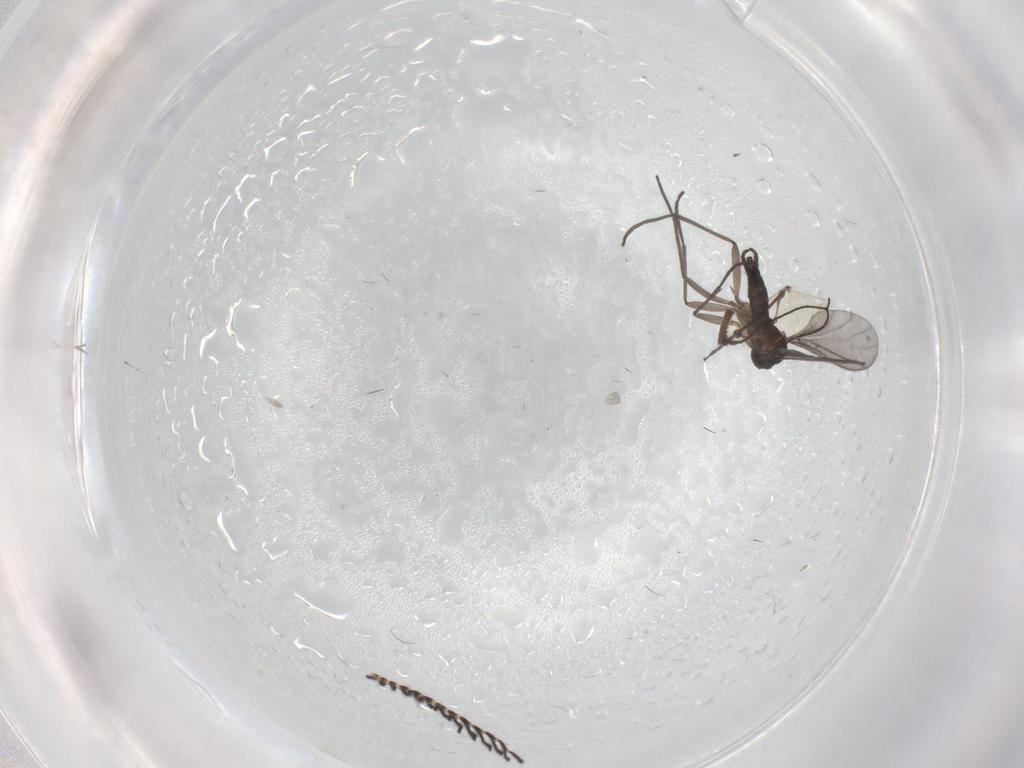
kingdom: Animalia
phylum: Arthropoda
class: Insecta
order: Diptera
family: Sciaridae
